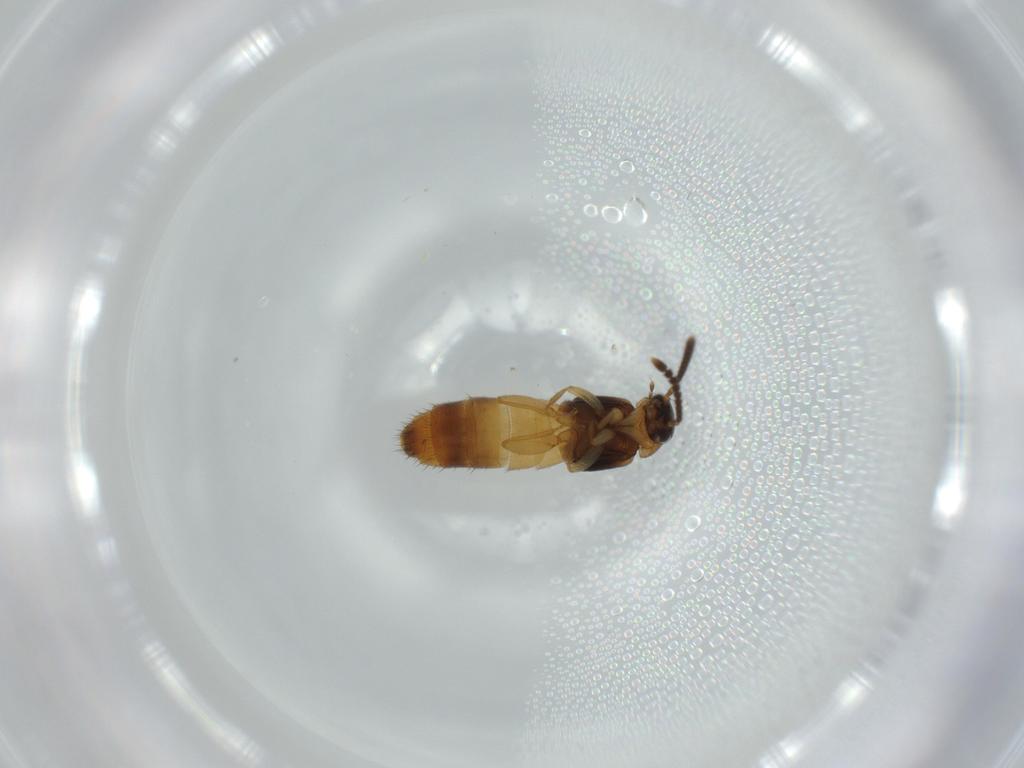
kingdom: Animalia
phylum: Arthropoda
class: Insecta
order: Coleoptera
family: Staphylinidae
